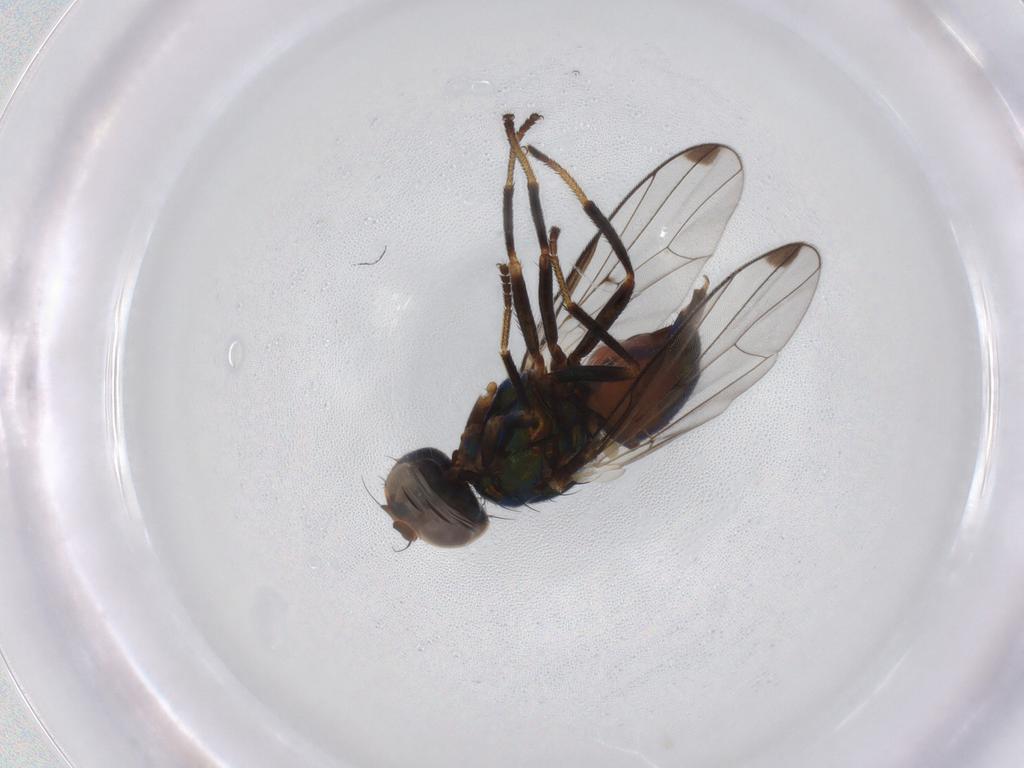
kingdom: Animalia
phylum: Arthropoda
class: Insecta
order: Diptera
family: Platystomatidae
